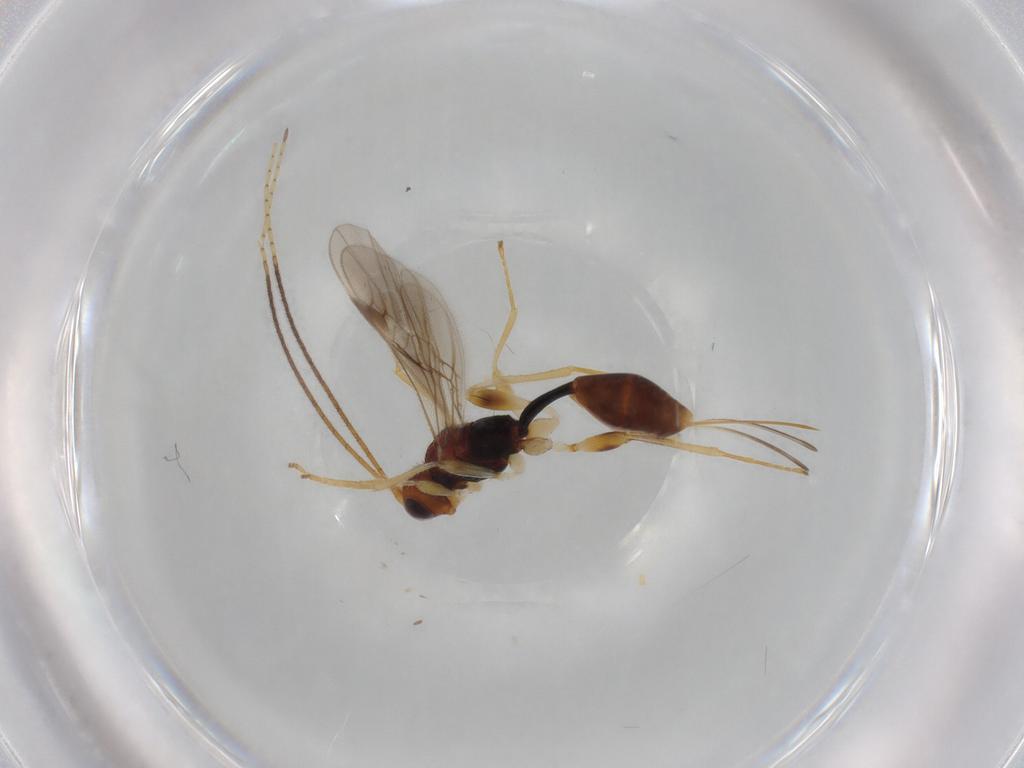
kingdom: Animalia
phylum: Arthropoda
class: Insecta
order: Hymenoptera
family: Braconidae
